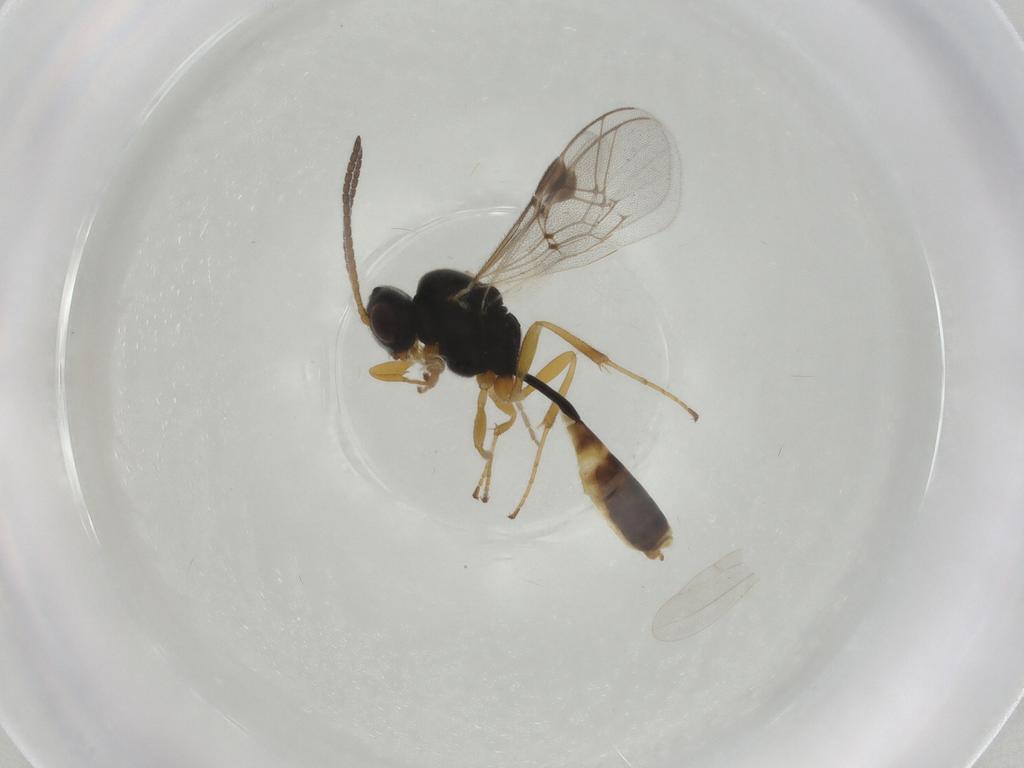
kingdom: Animalia
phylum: Arthropoda
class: Insecta
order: Hymenoptera
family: Ichneumonidae
